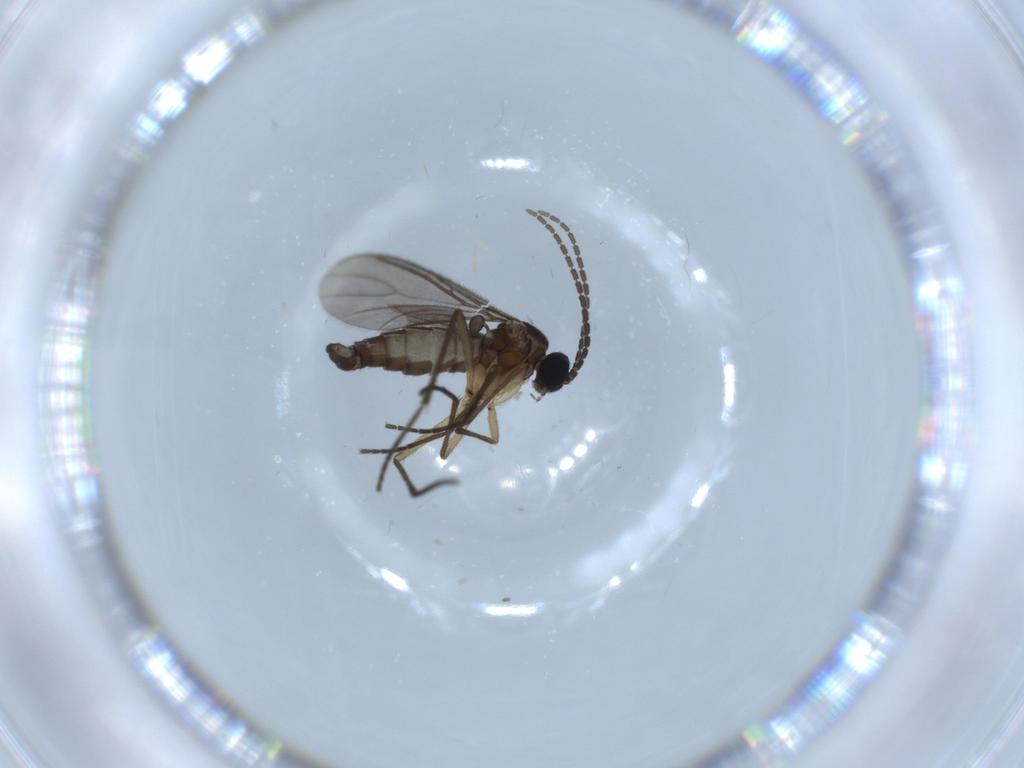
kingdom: Animalia
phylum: Arthropoda
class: Insecta
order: Diptera
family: Sciaridae
